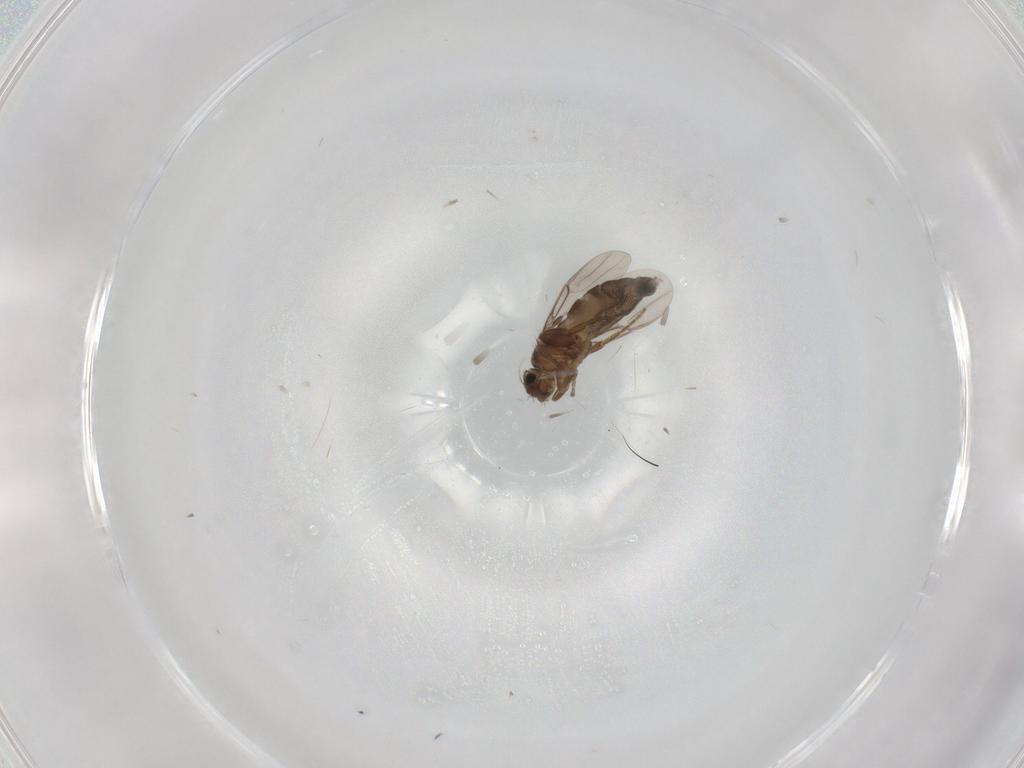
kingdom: Animalia
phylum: Arthropoda
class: Insecta
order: Diptera
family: Phoridae
